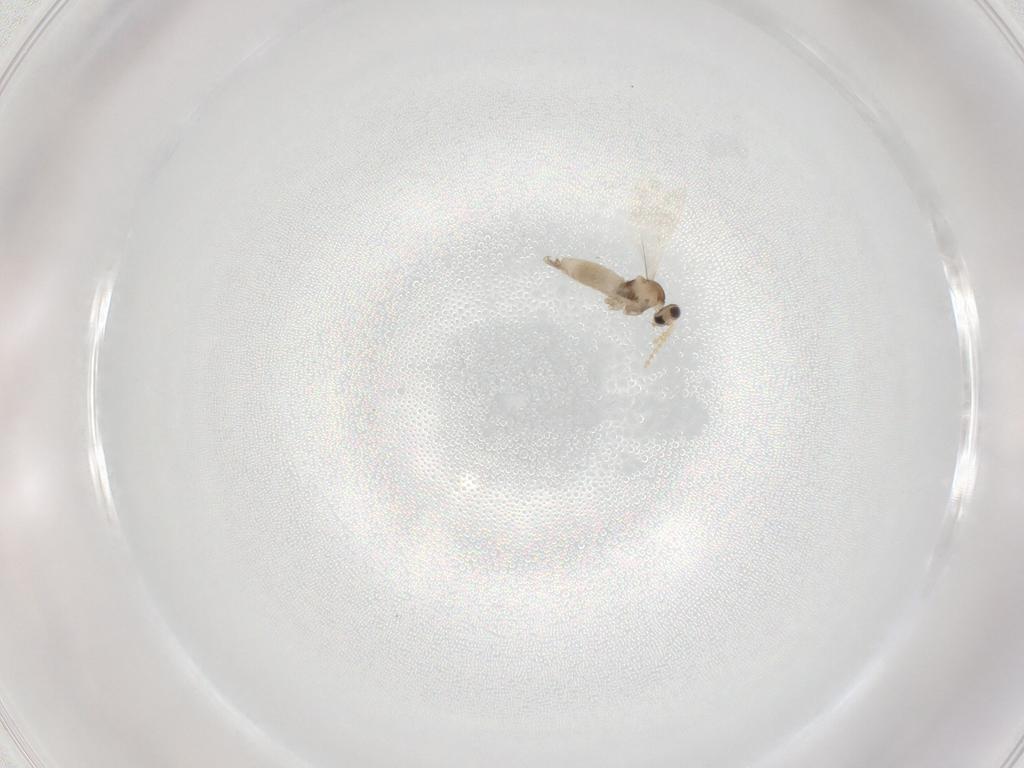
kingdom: Animalia
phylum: Arthropoda
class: Insecta
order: Diptera
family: Cecidomyiidae
